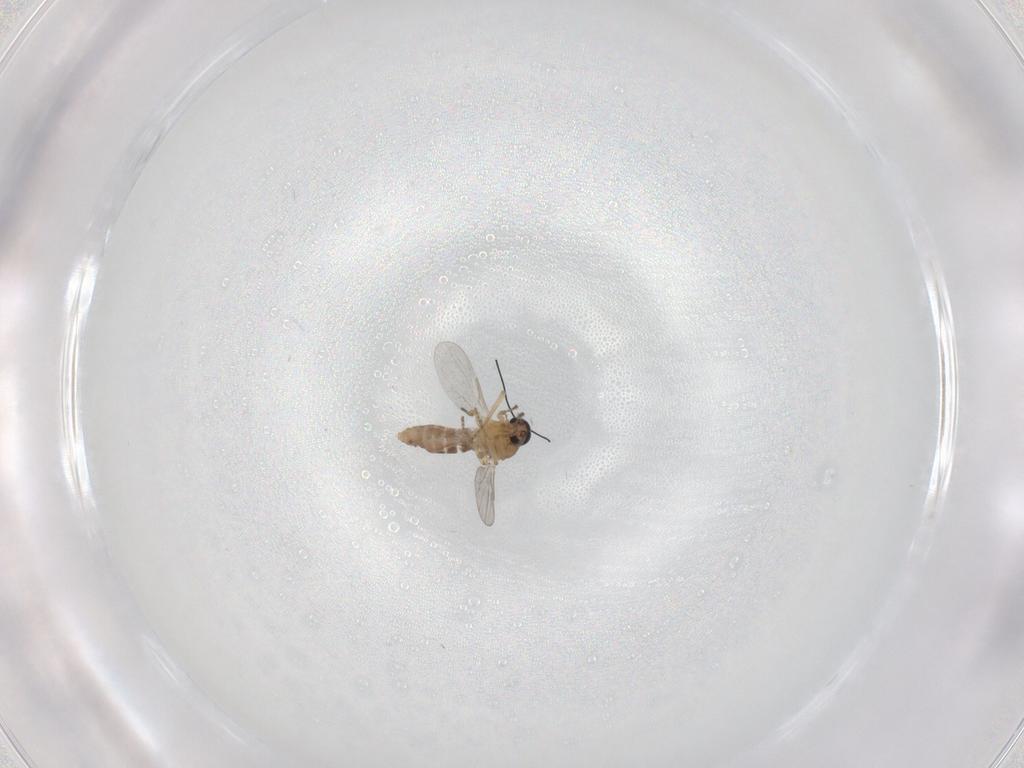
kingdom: Animalia
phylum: Arthropoda
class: Insecta
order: Diptera
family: Ceratopogonidae
